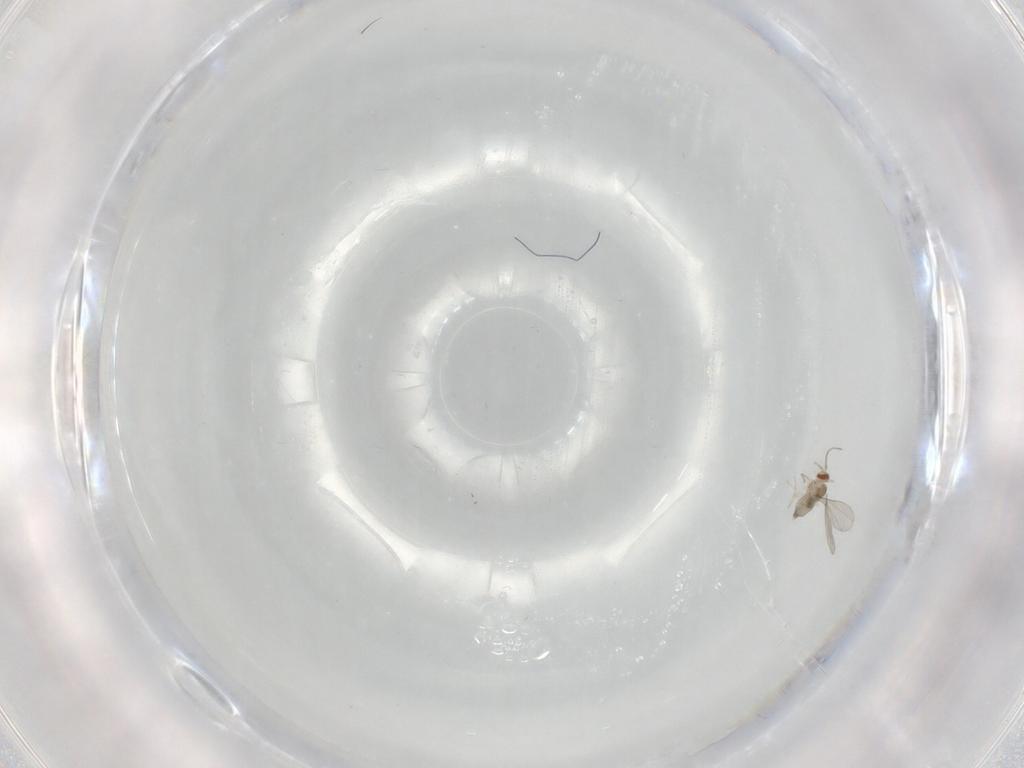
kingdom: Animalia
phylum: Arthropoda
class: Insecta
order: Diptera
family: Cecidomyiidae
